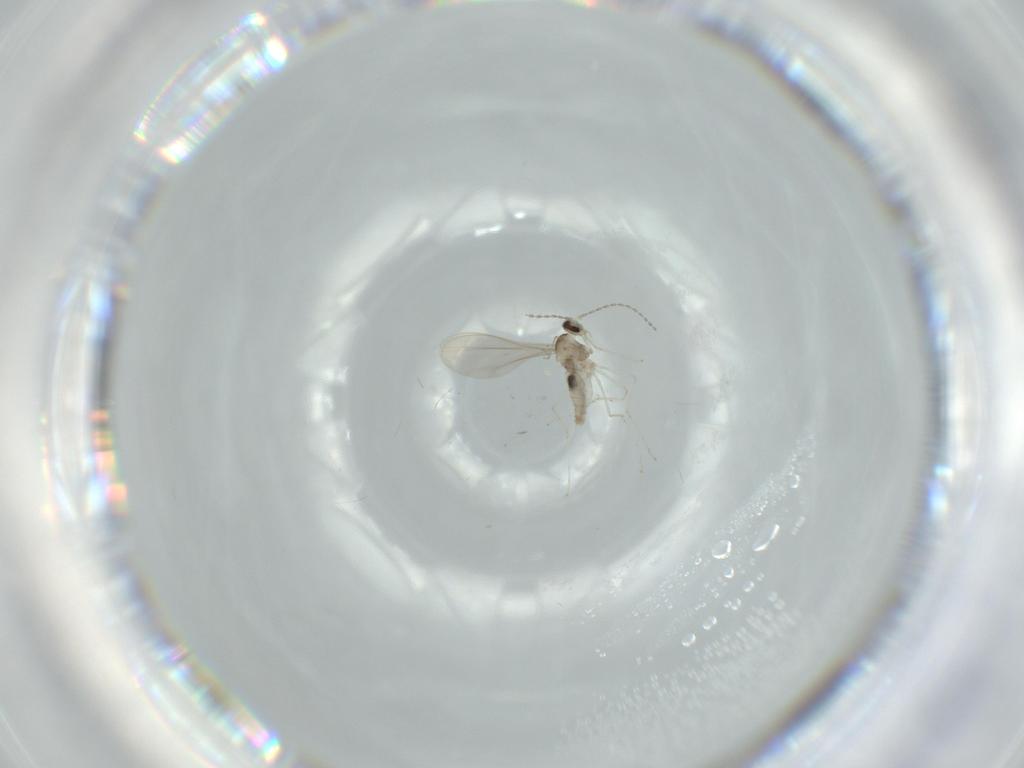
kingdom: Animalia
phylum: Arthropoda
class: Insecta
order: Diptera
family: Cecidomyiidae
